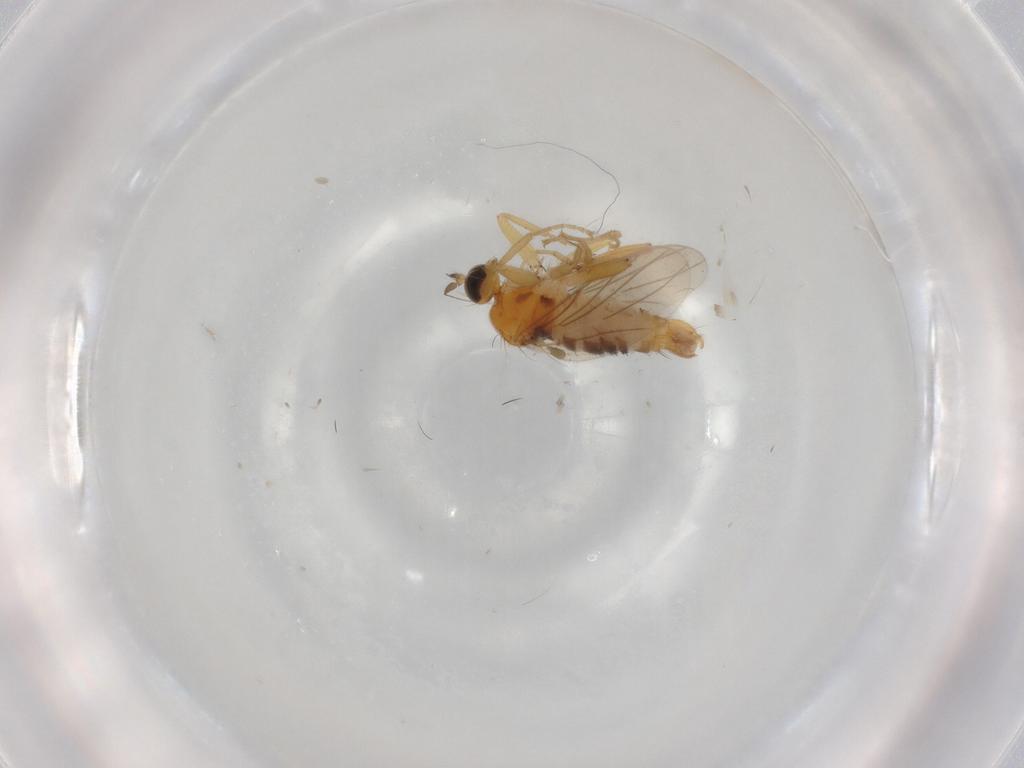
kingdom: Animalia
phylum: Arthropoda
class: Insecta
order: Diptera
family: Hybotidae
